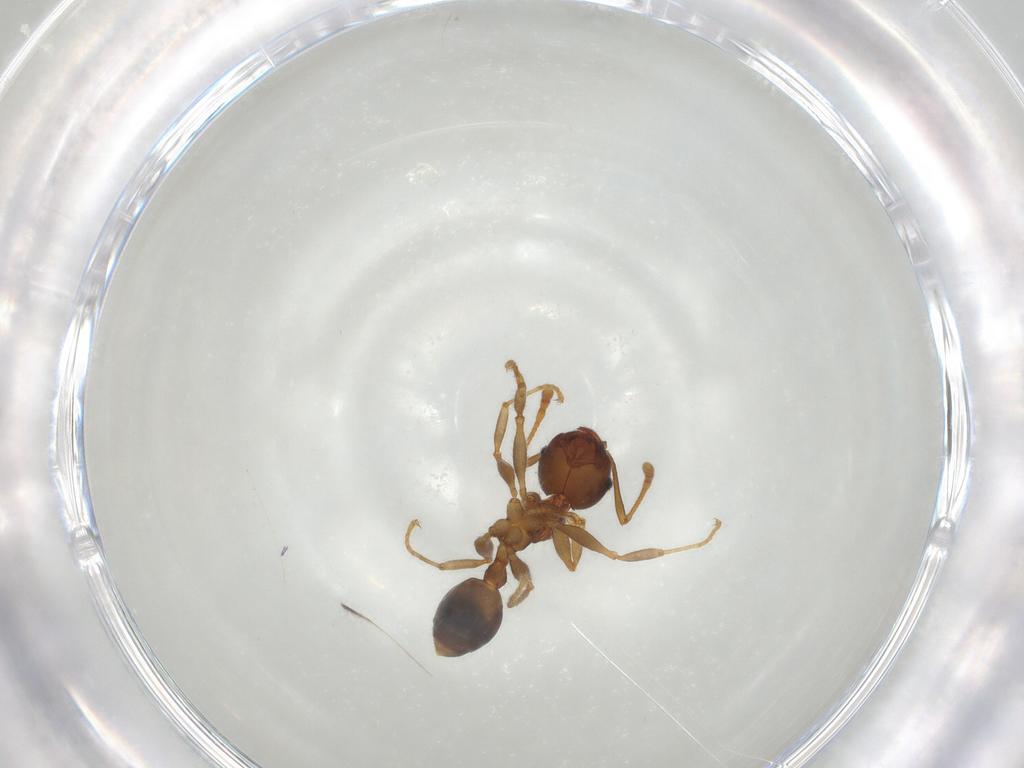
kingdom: Animalia
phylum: Arthropoda
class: Insecta
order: Hymenoptera
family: Formicidae
